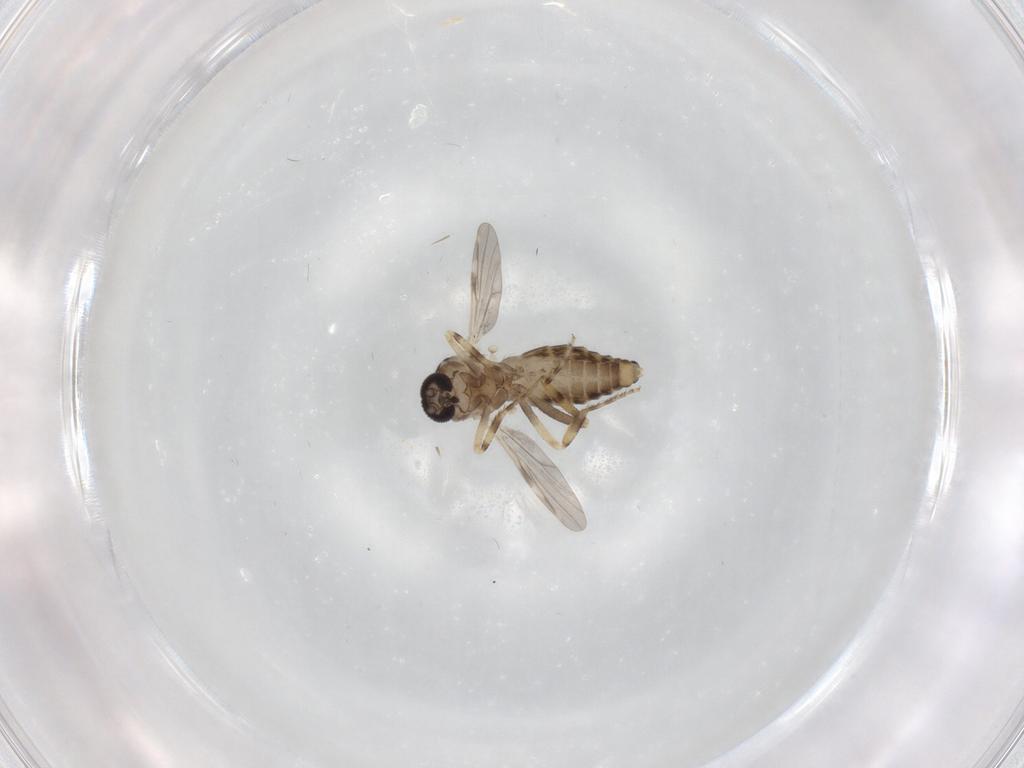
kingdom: Animalia
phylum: Arthropoda
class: Insecta
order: Diptera
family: Ceratopogonidae
